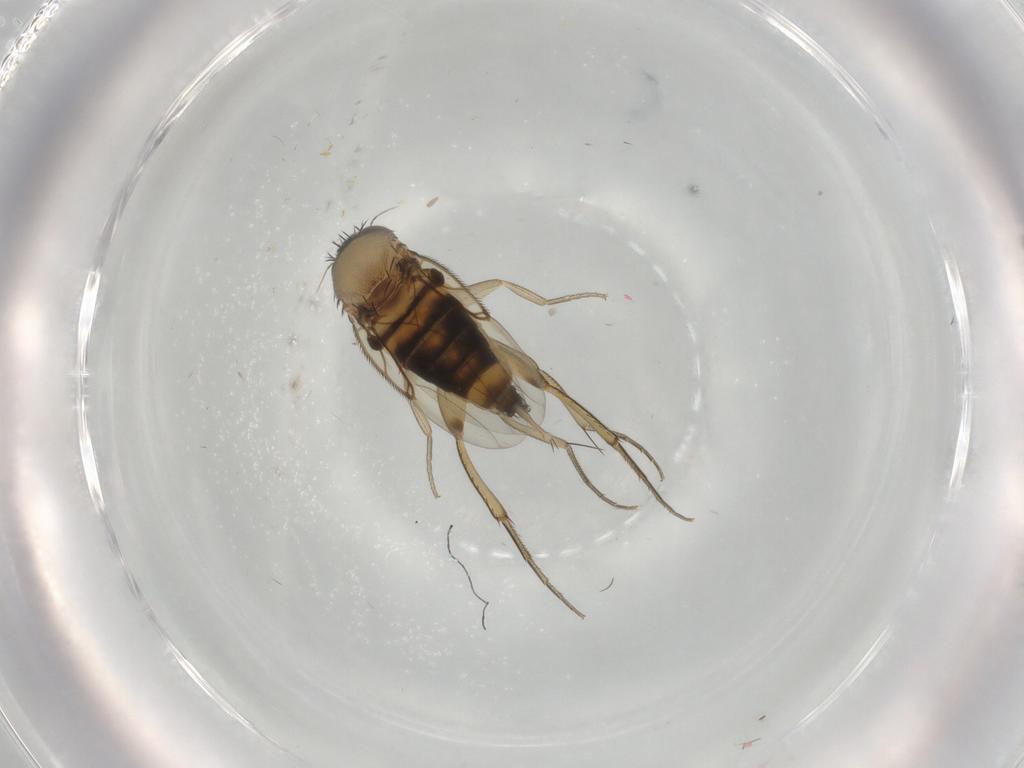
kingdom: Animalia
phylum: Arthropoda
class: Insecta
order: Diptera
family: Phoridae
